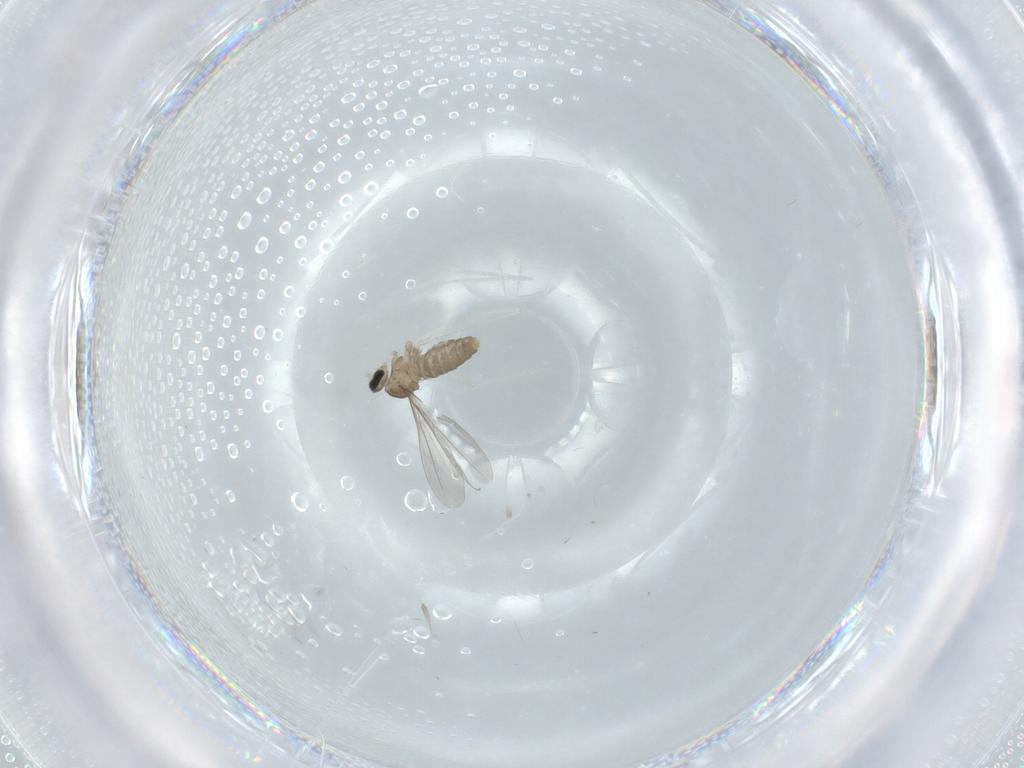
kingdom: Animalia
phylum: Arthropoda
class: Insecta
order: Diptera
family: Cecidomyiidae
